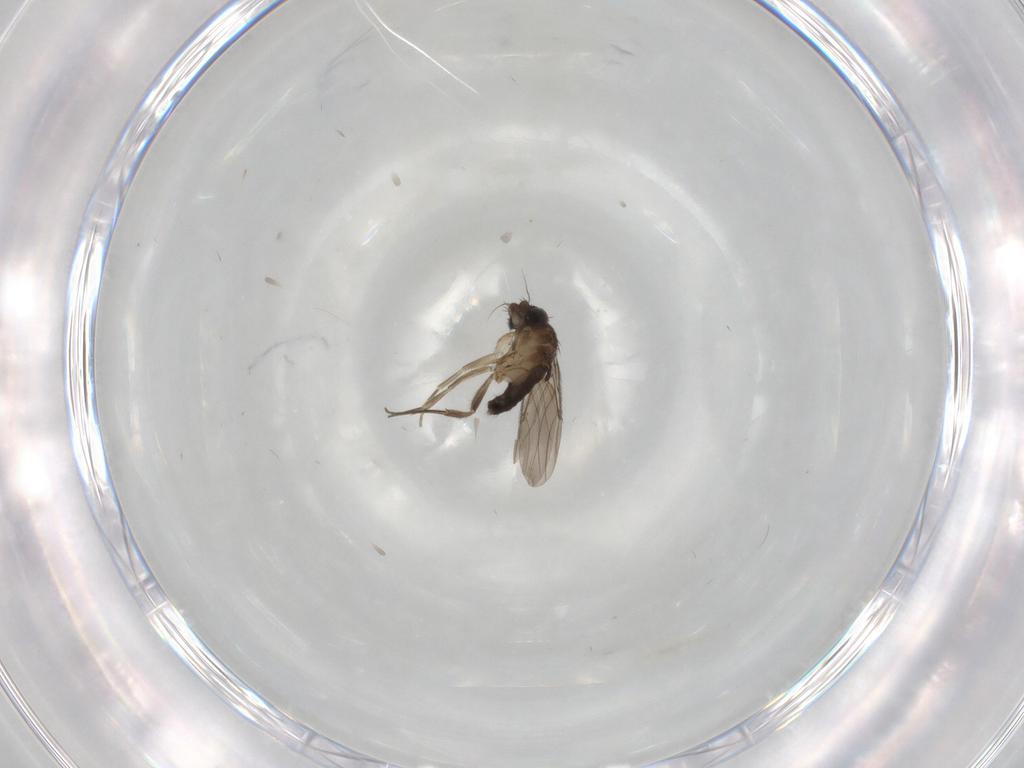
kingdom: Animalia
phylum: Arthropoda
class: Insecta
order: Diptera
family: Phoridae
